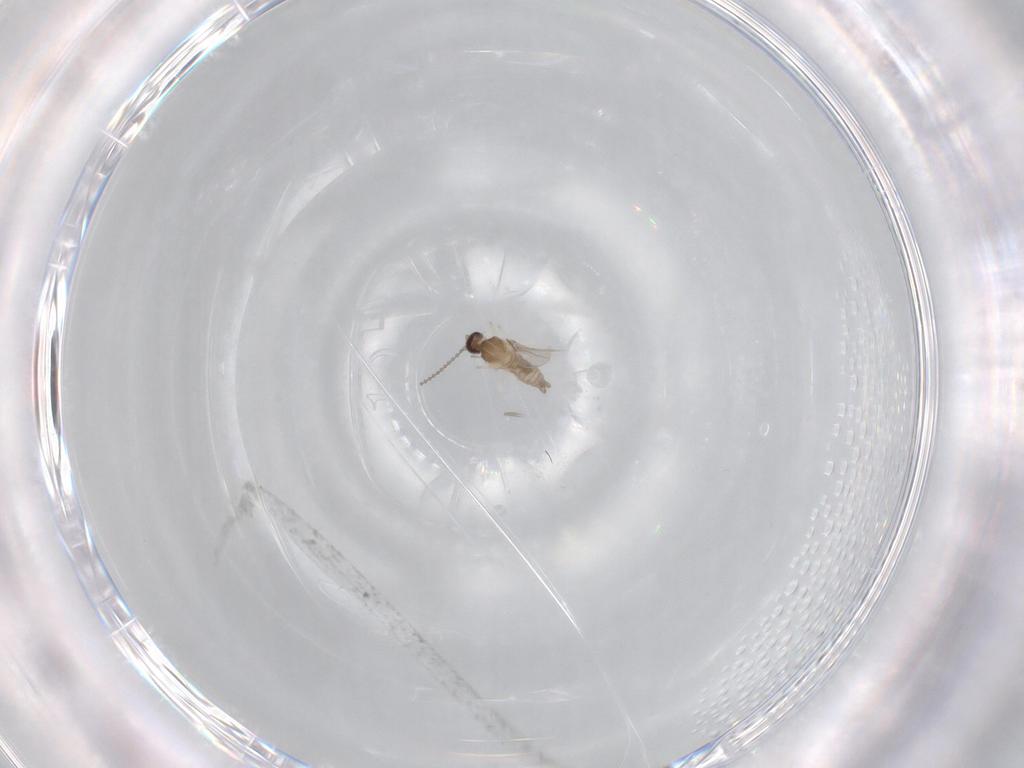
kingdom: Animalia
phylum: Arthropoda
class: Insecta
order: Diptera
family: Cecidomyiidae
